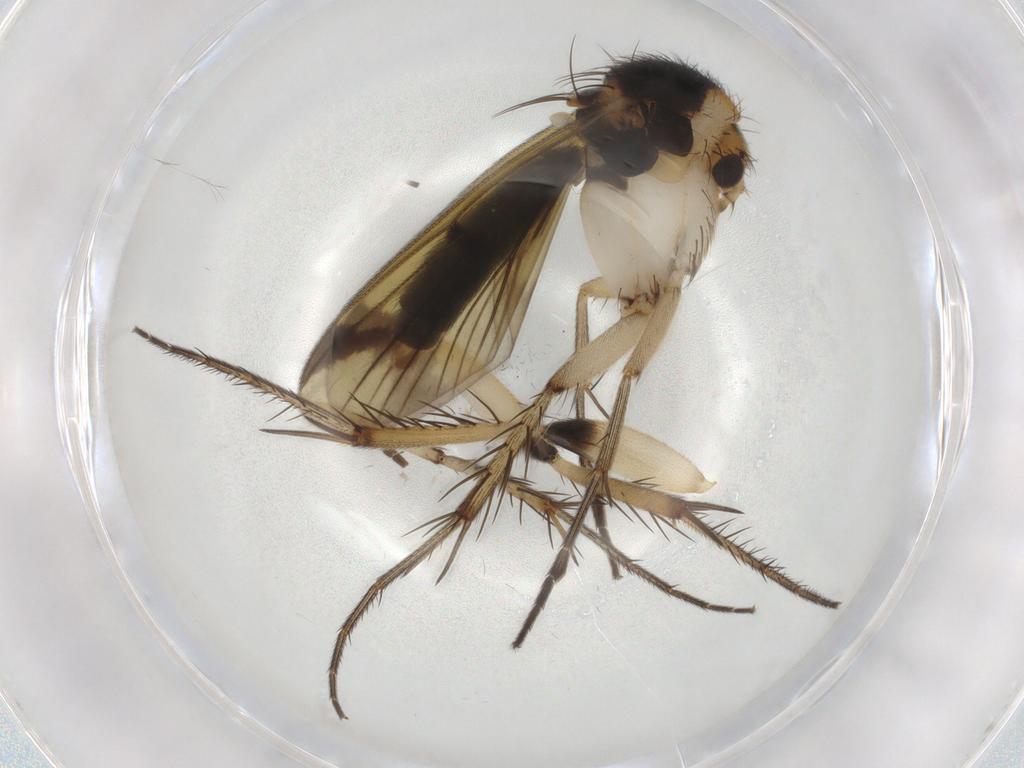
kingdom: Animalia
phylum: Arthropoda
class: Insecta
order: Diptera
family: Mycetophilidae
